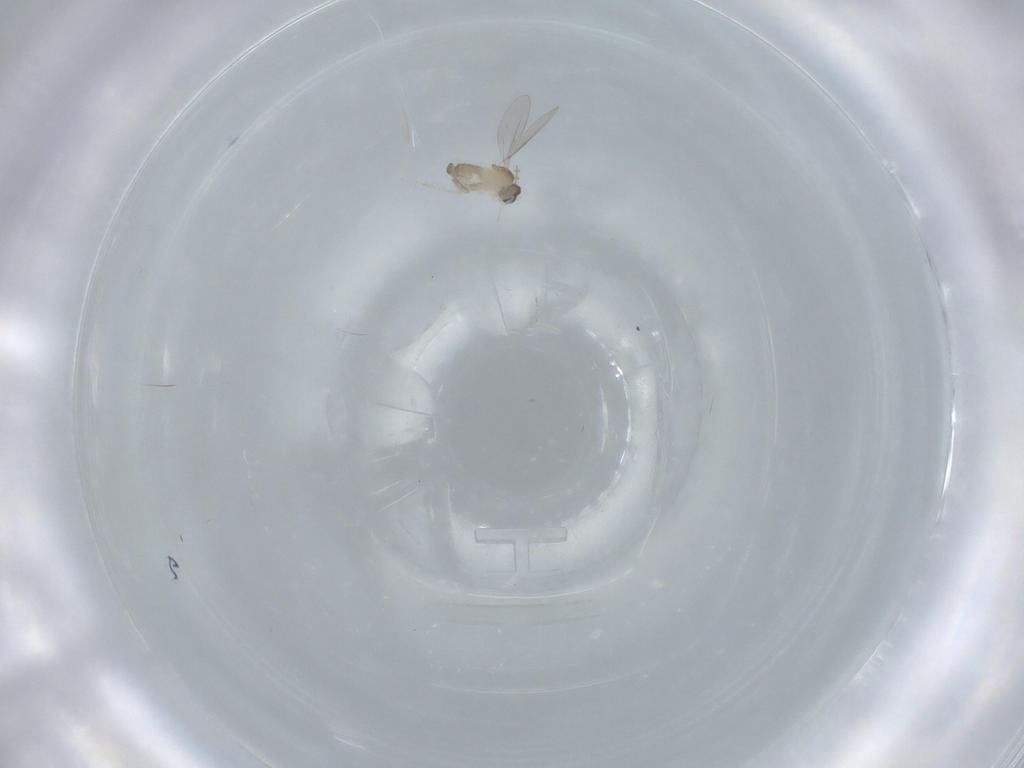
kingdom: Animalia
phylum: Arthropoda
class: Insecta
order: Diptera
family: Cecidomyiidae
